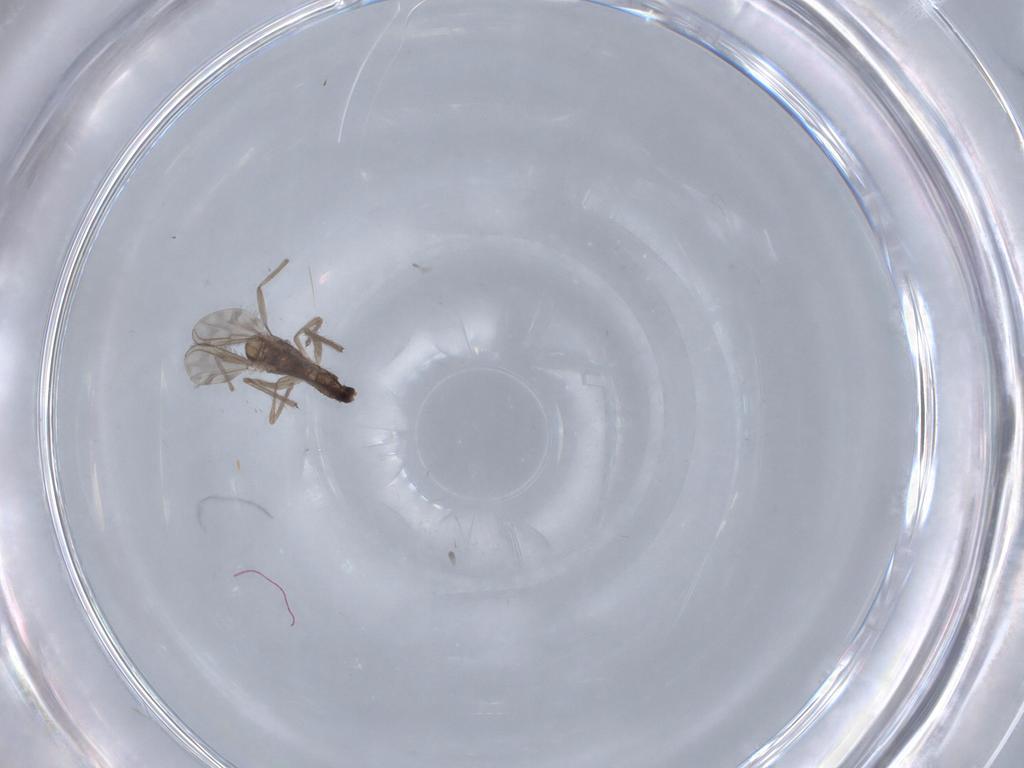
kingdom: Animalia
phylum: Arthropoda
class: Insecta
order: Diptera
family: Chironomidae
